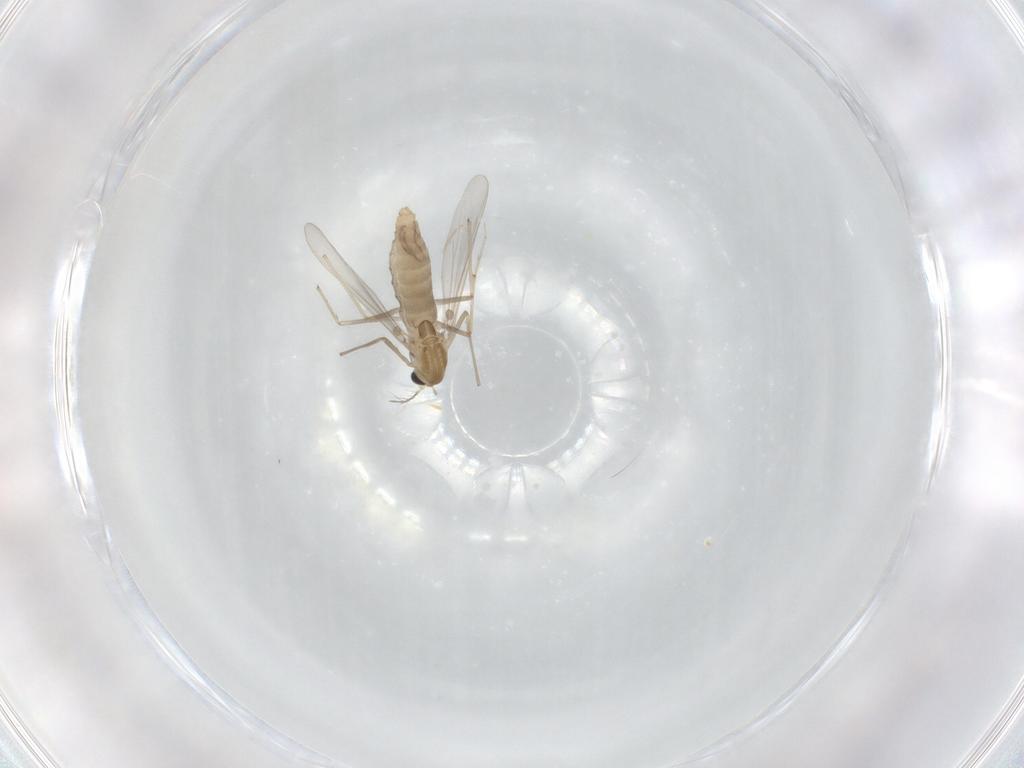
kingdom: Animalia
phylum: Arthropoda
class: Insecta
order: Diptera
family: Chironomidae
